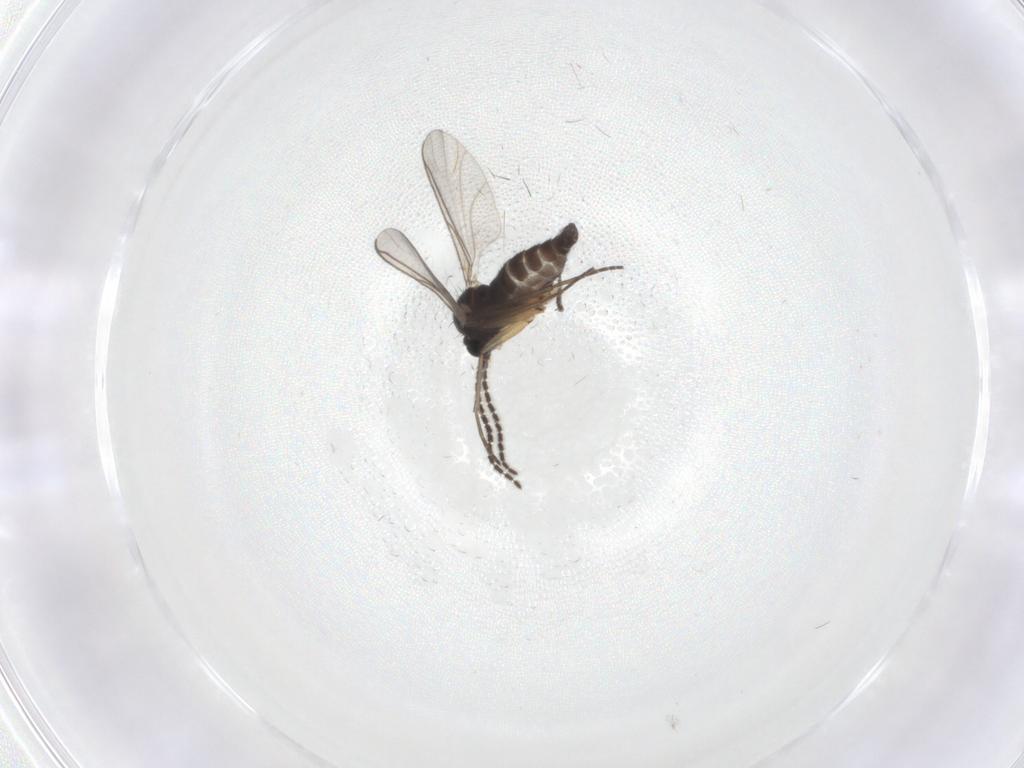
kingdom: Animalia
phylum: Arthropoda
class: Insecta
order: Diptera
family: Sciaridae
